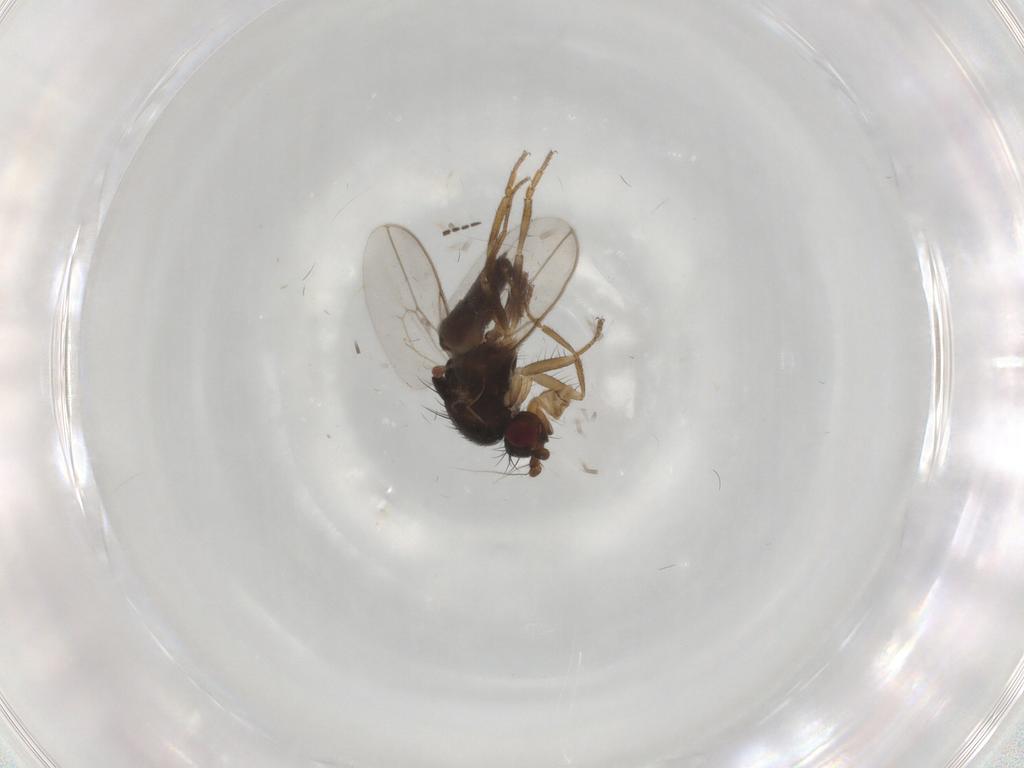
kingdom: Animalia
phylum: Arthropoda
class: Insecta
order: Diptera
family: Sphaeroceridae
